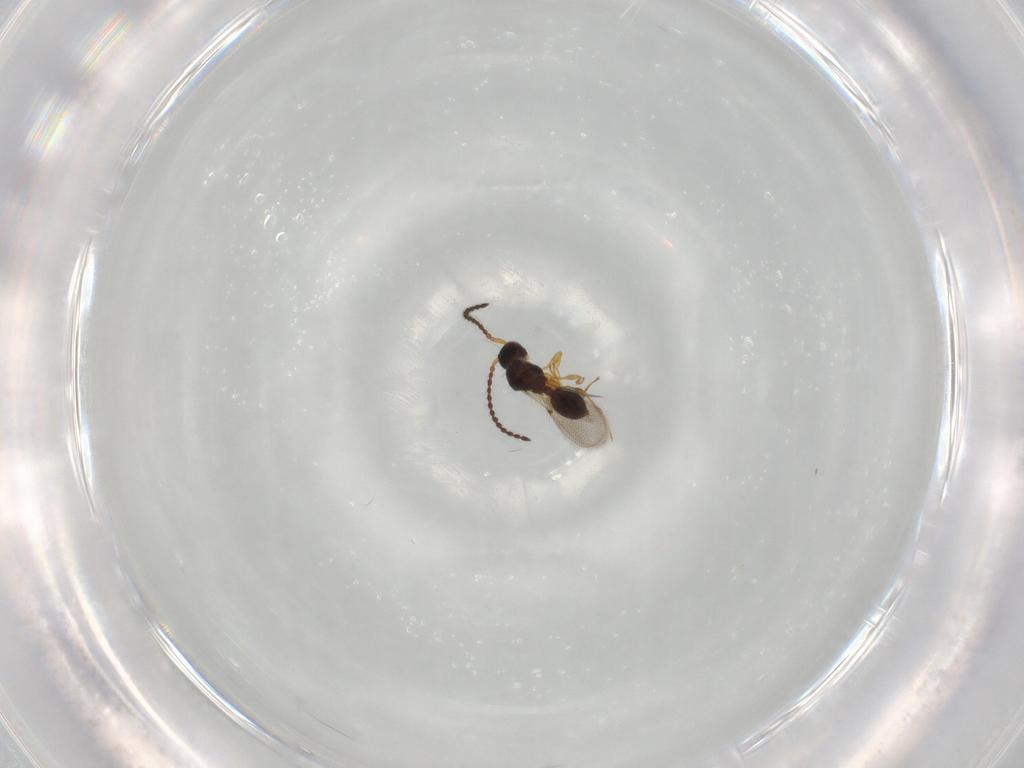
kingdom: Animalia
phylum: Arthropoda
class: Insecta
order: Hymenoptera
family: Diapriidae
